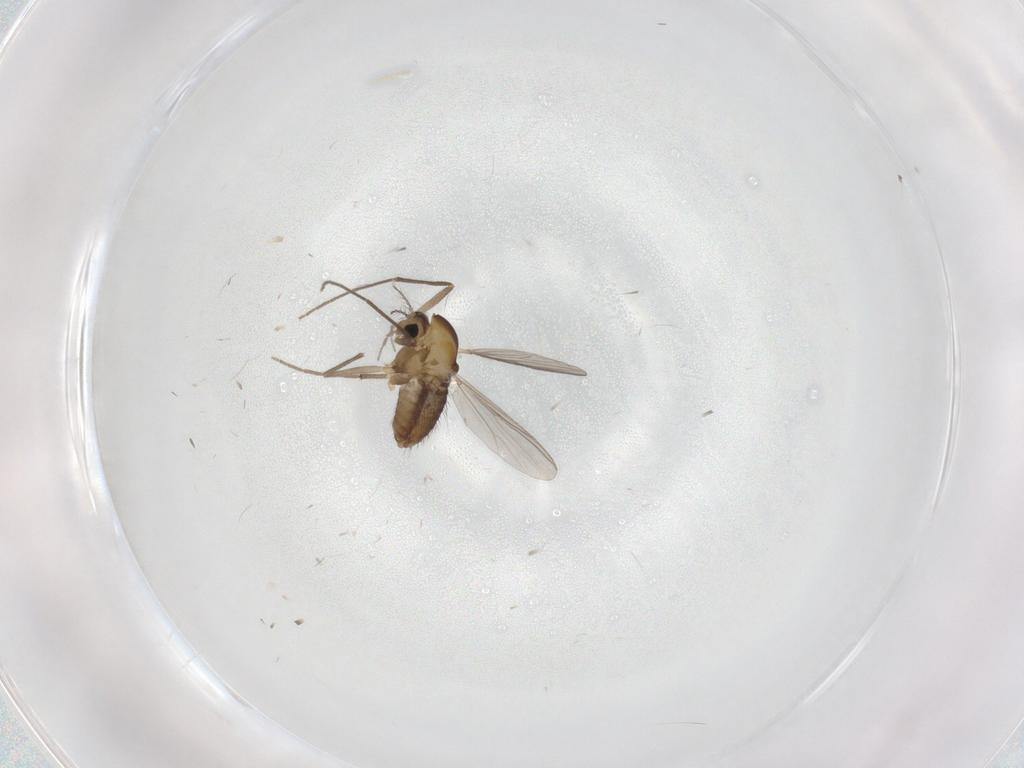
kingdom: Animalia
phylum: Arthropoda
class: Insecta
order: Diptera
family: Chironomidae
